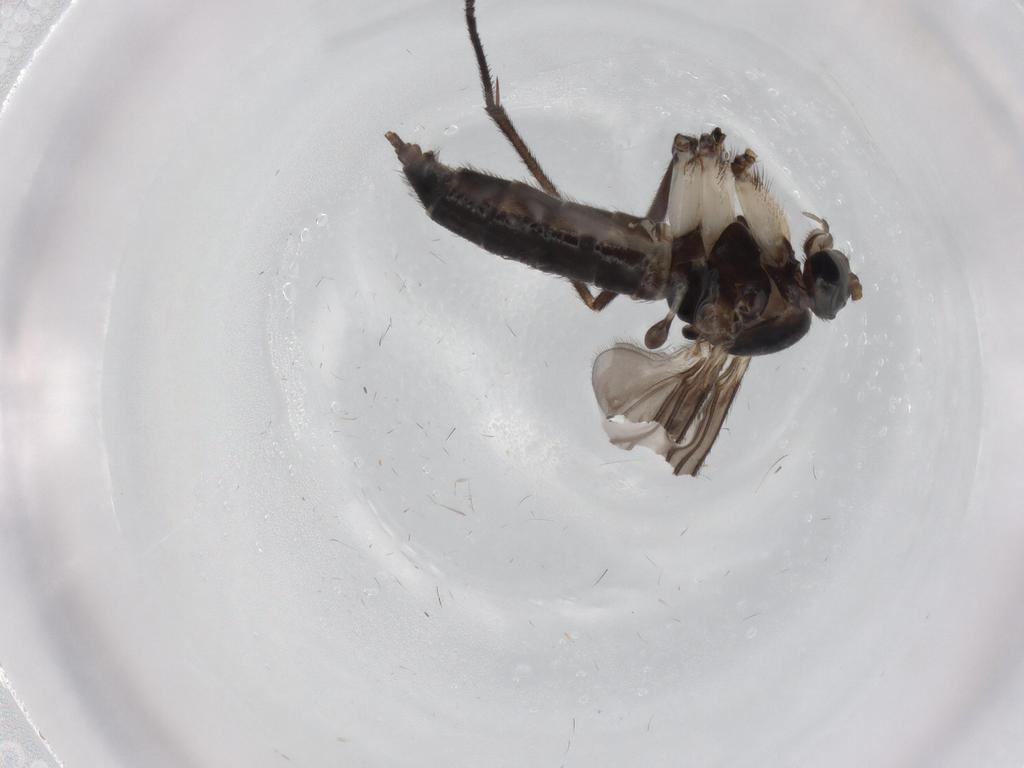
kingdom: Animalia
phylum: Arthropoda
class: Insecta
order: Diptera
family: Sciaridae
